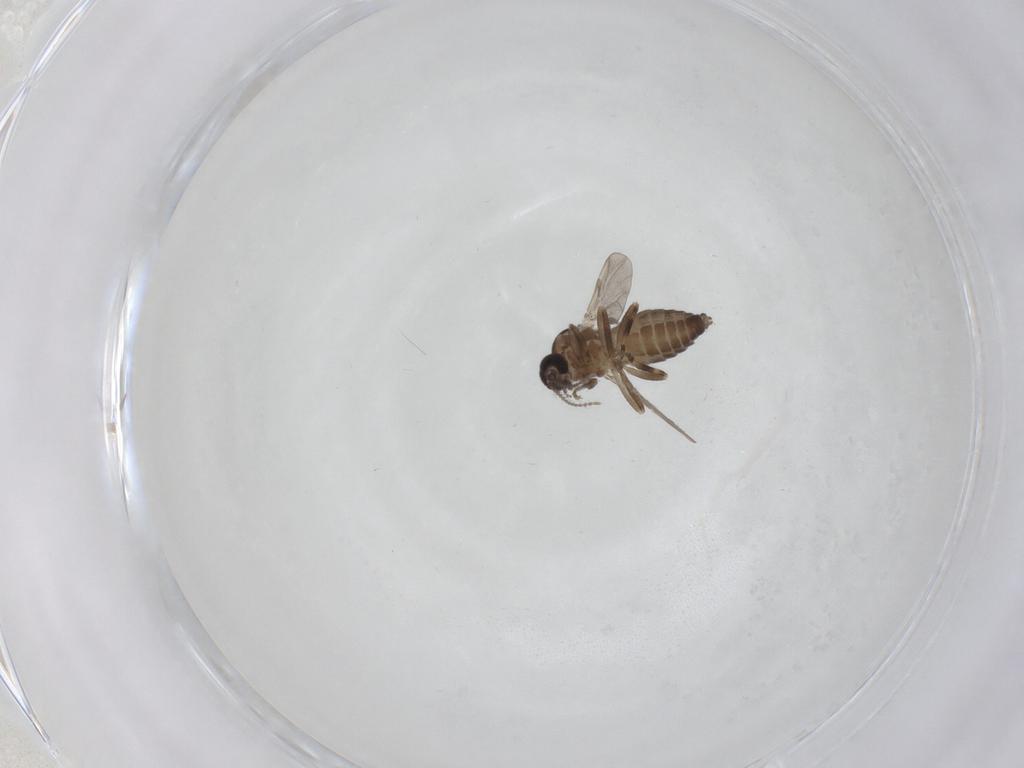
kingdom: Animalia
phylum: Arthropoda
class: Insecta
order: Diptera
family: Ceratopogonidae
